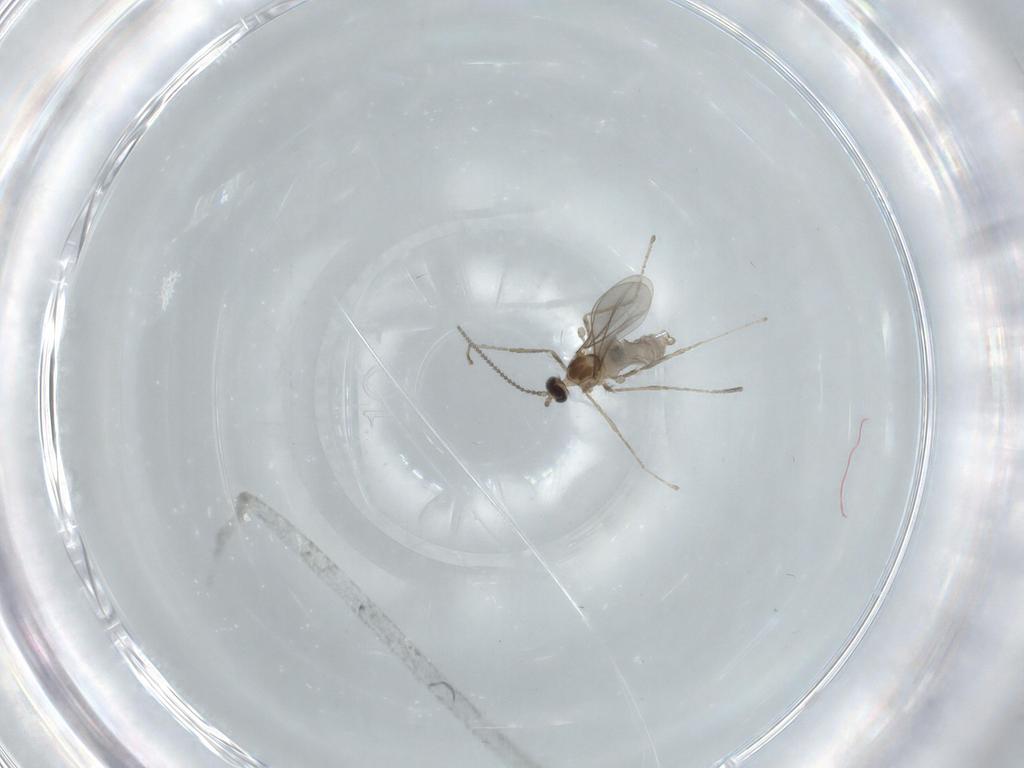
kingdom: Animalia
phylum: Arthropoda
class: Insecta
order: Diptera
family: Cecidomyiidae
